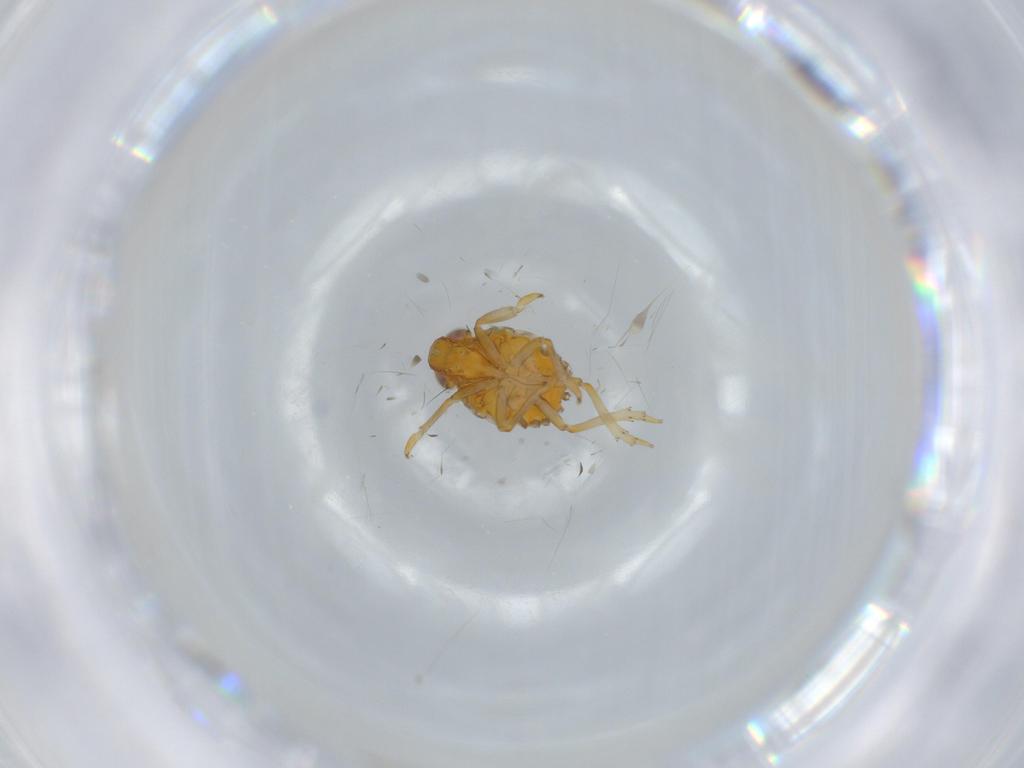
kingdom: Animalia
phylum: Arthropoda
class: Insecta
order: Hemiptera
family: Issidae
